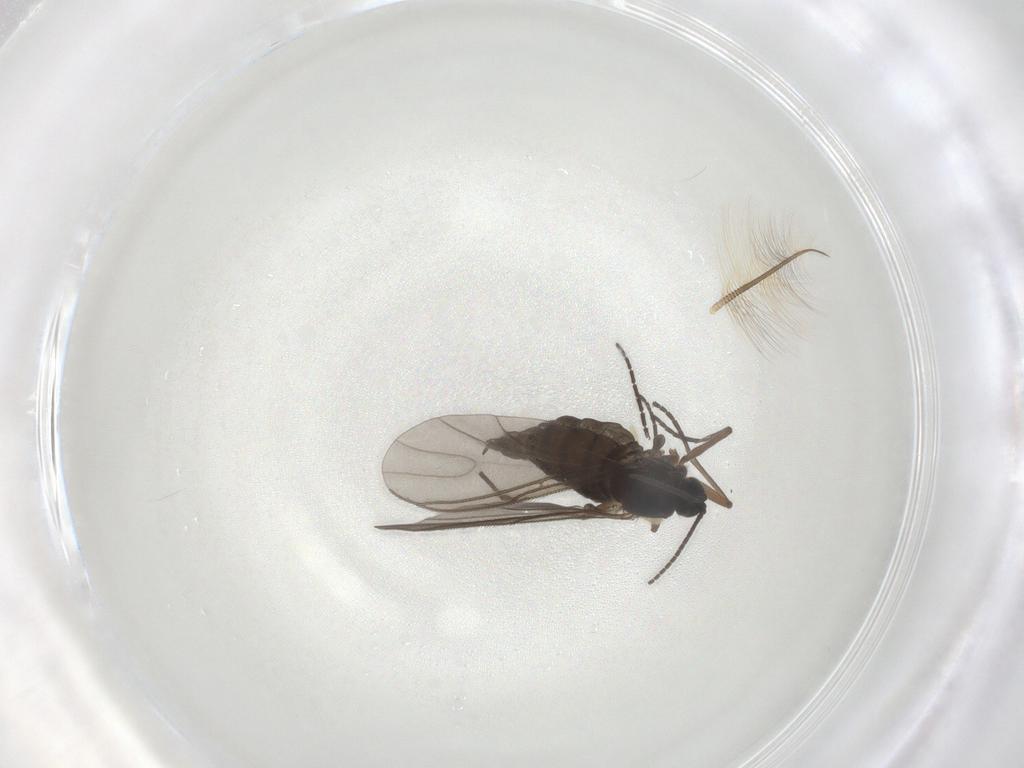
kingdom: Animalia
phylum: Arthropoda
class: Insecta
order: Diptera
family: Sciaridae
